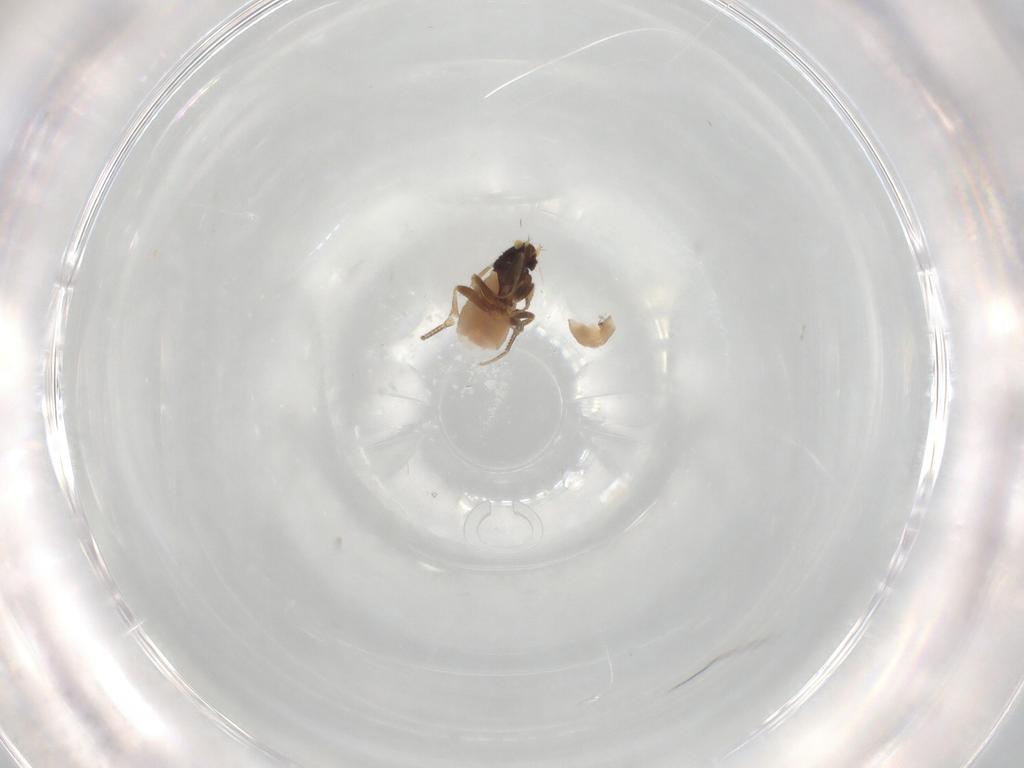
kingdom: Animalia
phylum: Arthropoda
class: Insecta
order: Diptera
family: Phoridae
